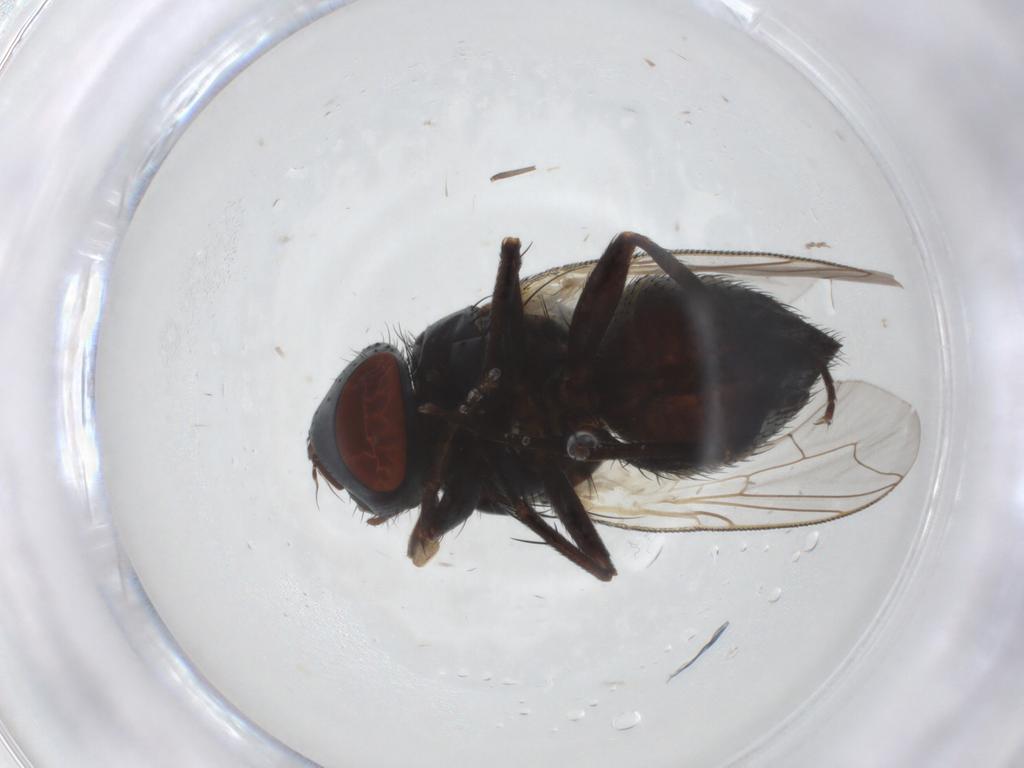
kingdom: Animalia
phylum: Arthropoda
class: Insecta
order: Diptera
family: Sarcophagidae
